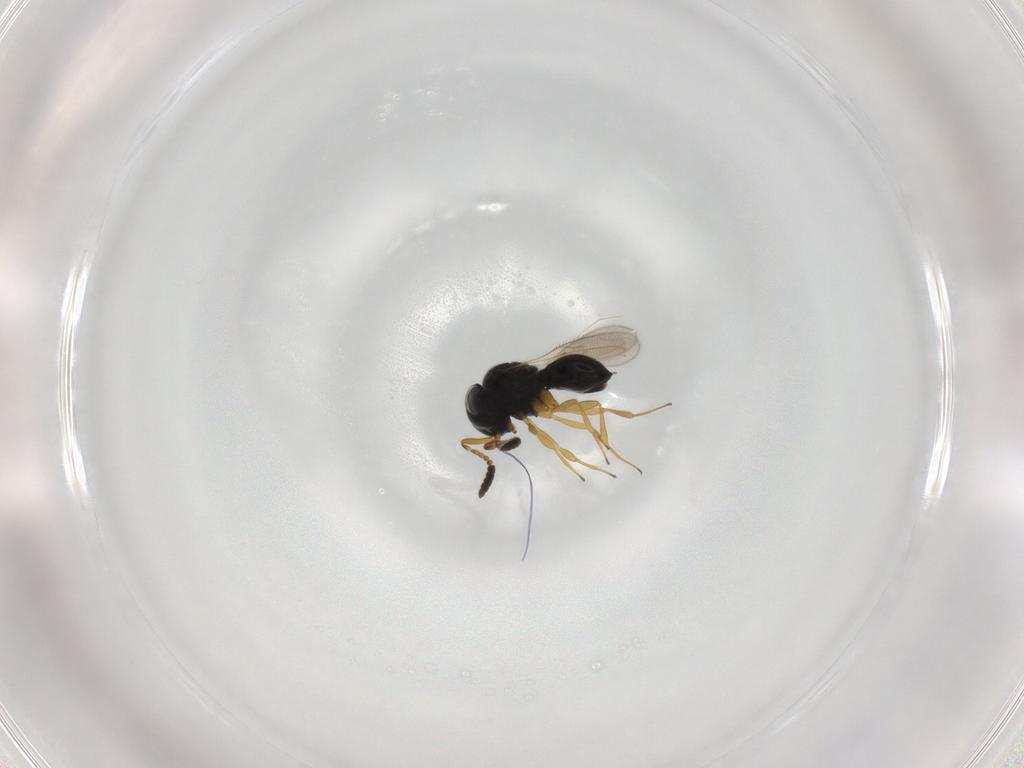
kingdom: Animalia
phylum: Arthropoda
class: Insecta
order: Hymenoptera
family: Scelionidae
